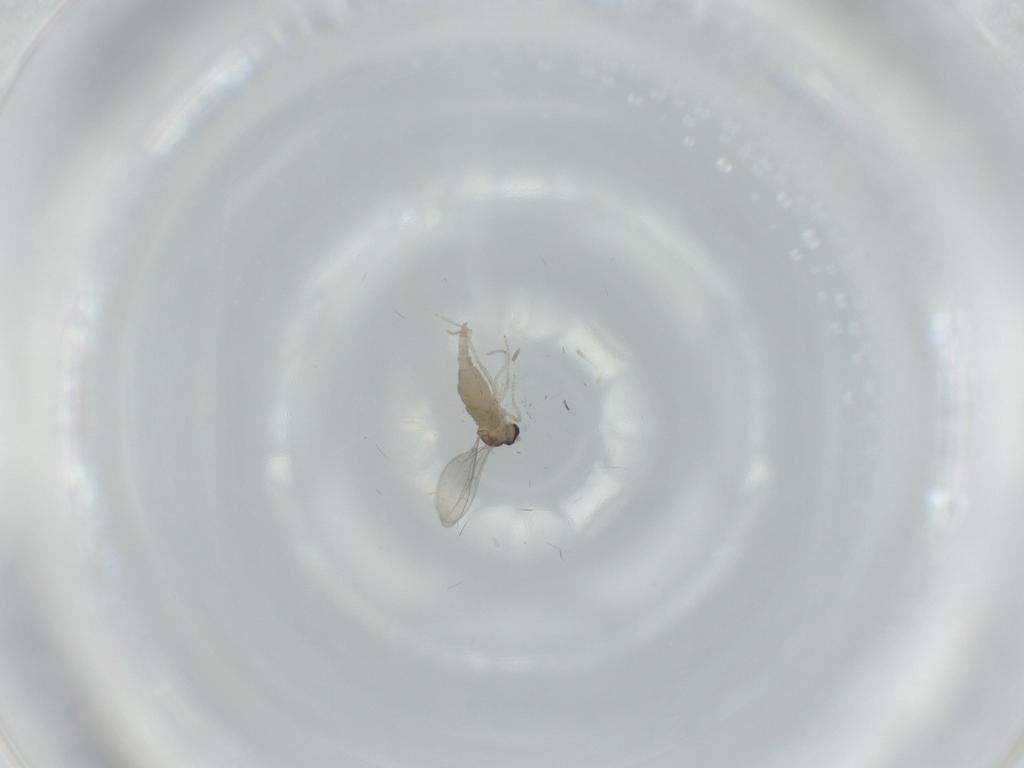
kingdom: Animalia
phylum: Arthropoda
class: Insecta
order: Diptera
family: Cecidomyiidae
